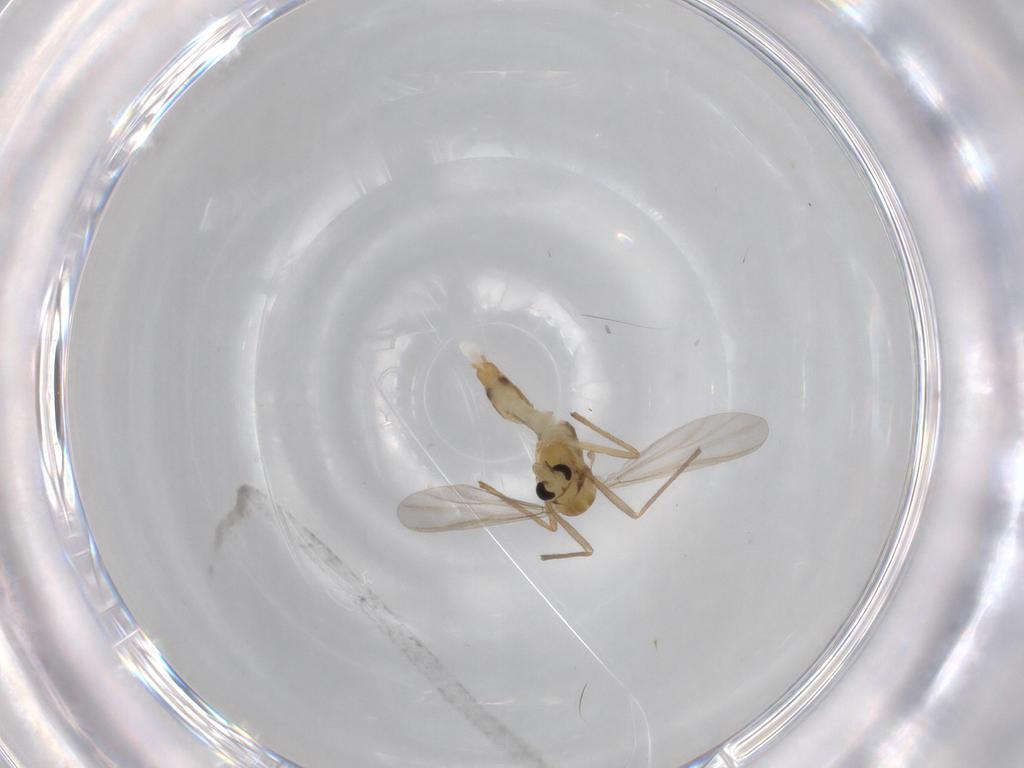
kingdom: Animalia
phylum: Arthropoda
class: Insecta
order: Diptera
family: Chironomidae
